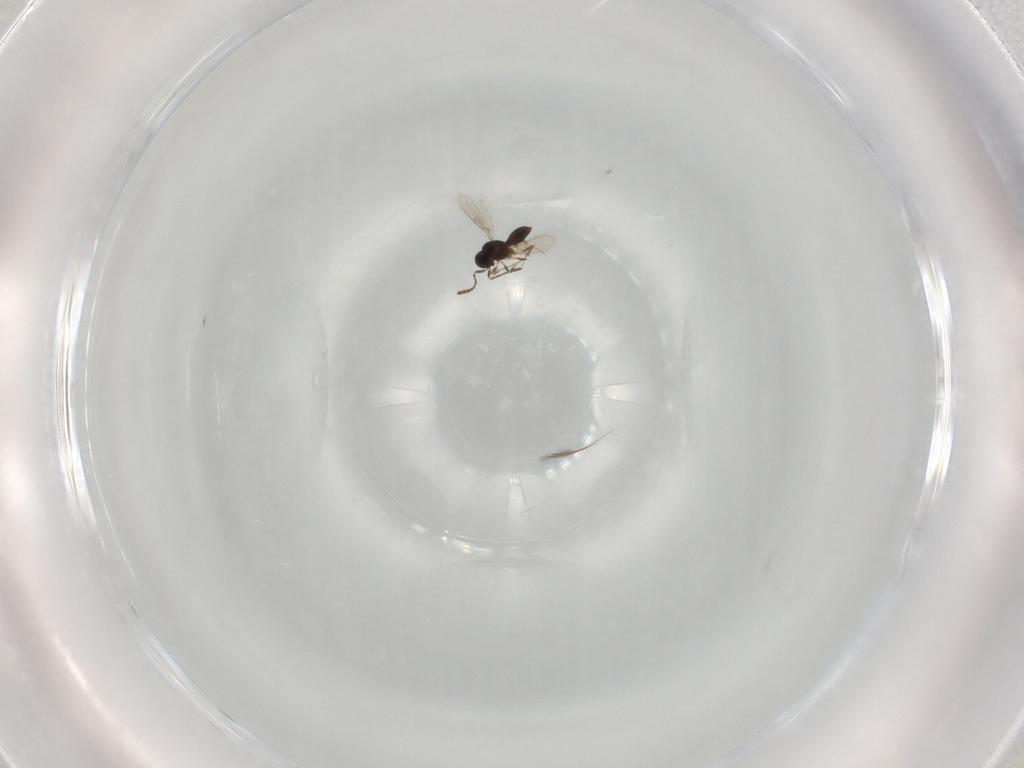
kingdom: Animalia
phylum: Arthropoda
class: Insecta
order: Hymenoptera
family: Scelionidae
